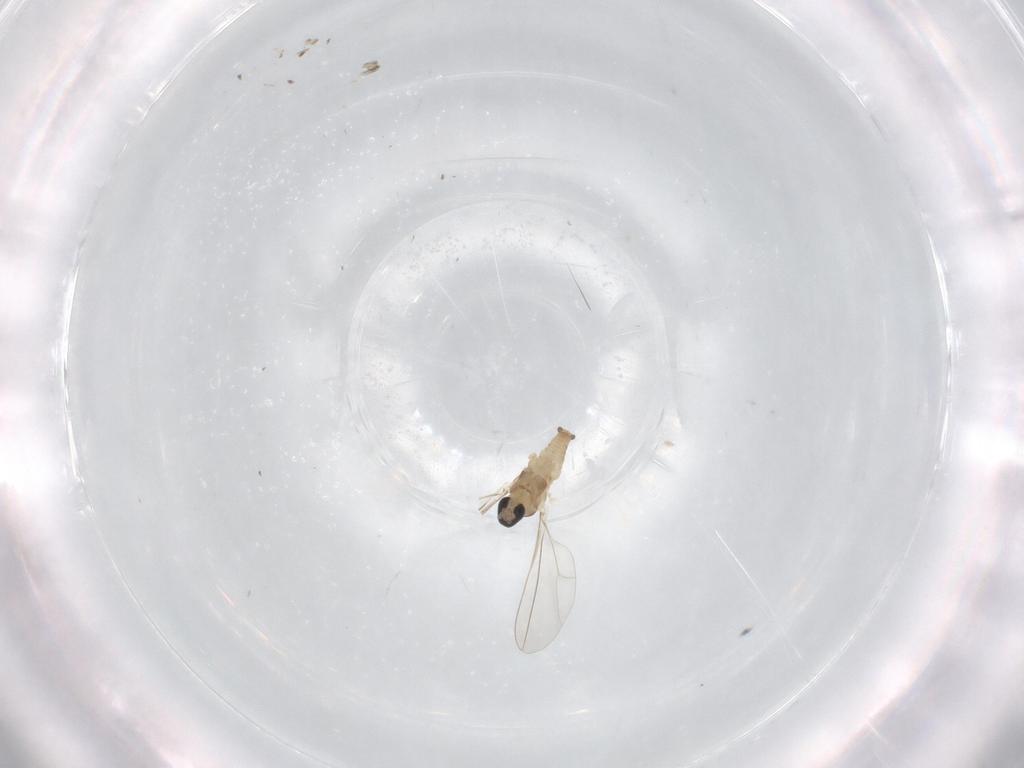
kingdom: Animalia
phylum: Arthropoda
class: Insecta
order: Diptera
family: Cecidomyiidae
